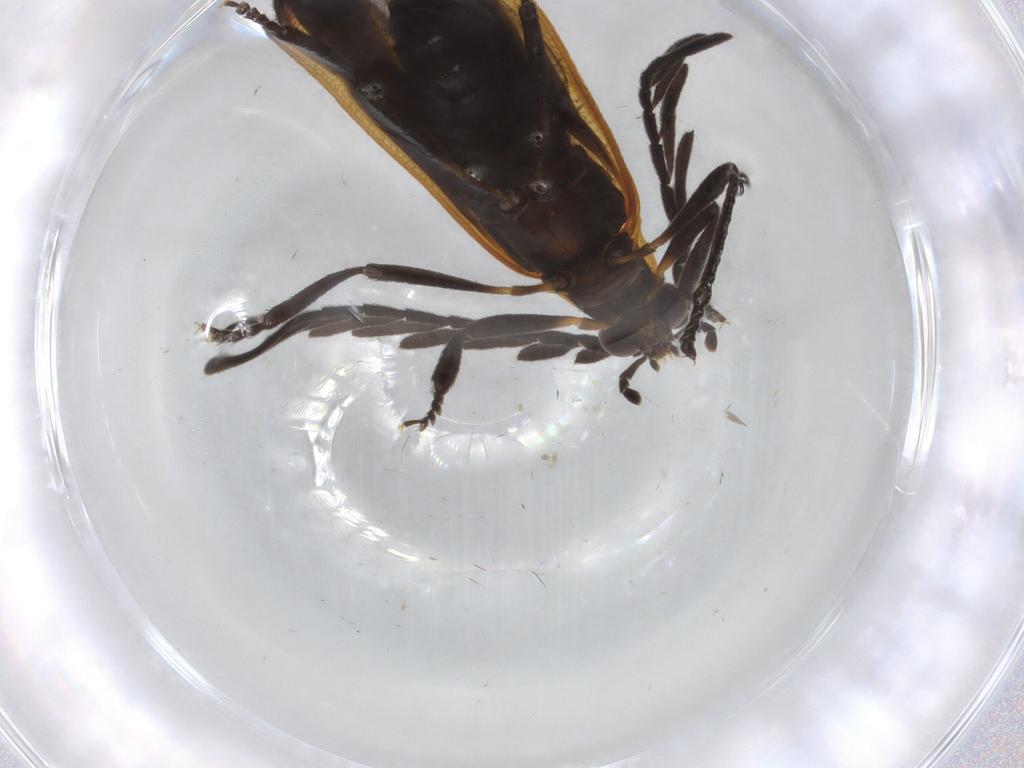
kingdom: Animalia
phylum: Arthropoda
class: Insecta
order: Coleoptera
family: Lycidae
